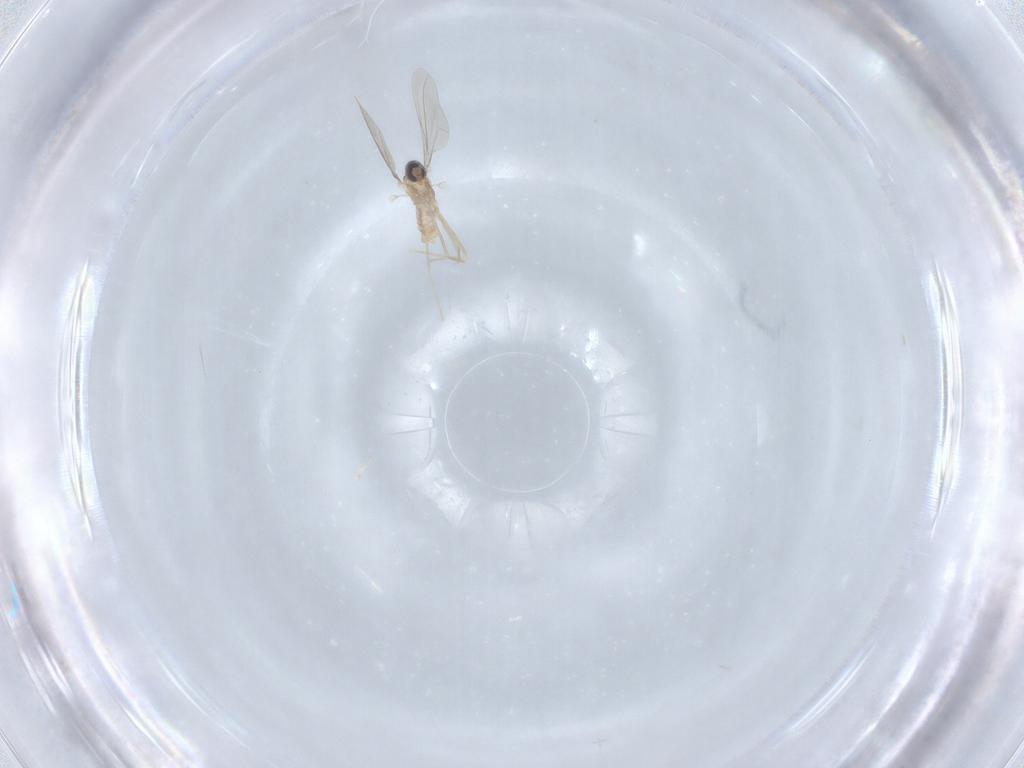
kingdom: Animalia
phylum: Arthropoda
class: Insecta
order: Diptera
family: Cecidomyiidae
